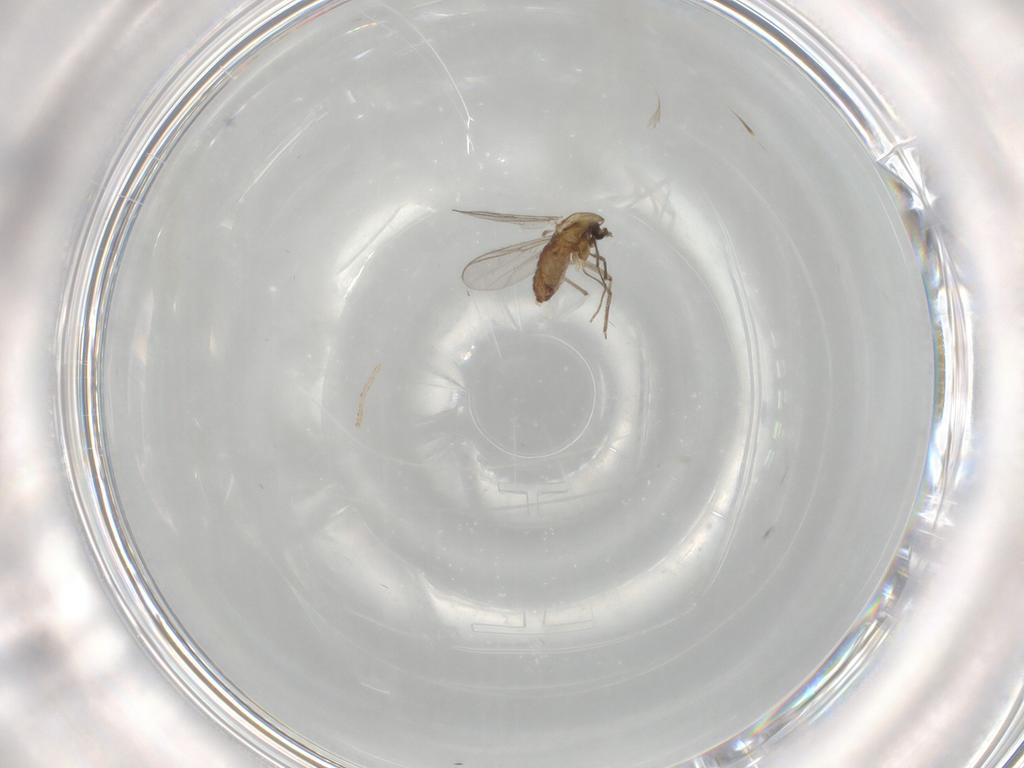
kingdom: Animalia
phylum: Arthropoda
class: Insecta
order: Diptera
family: Chironomidae
